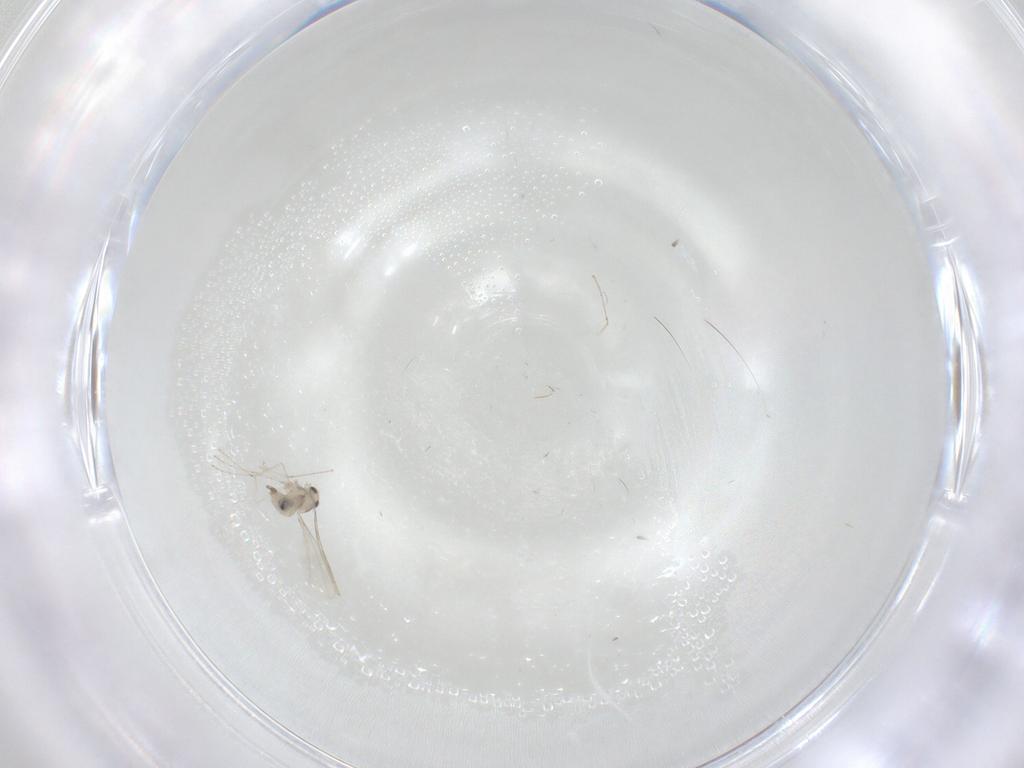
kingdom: Animalia
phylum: Arthropoda
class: Insecta
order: Diptera
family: Cecidomyiidae
